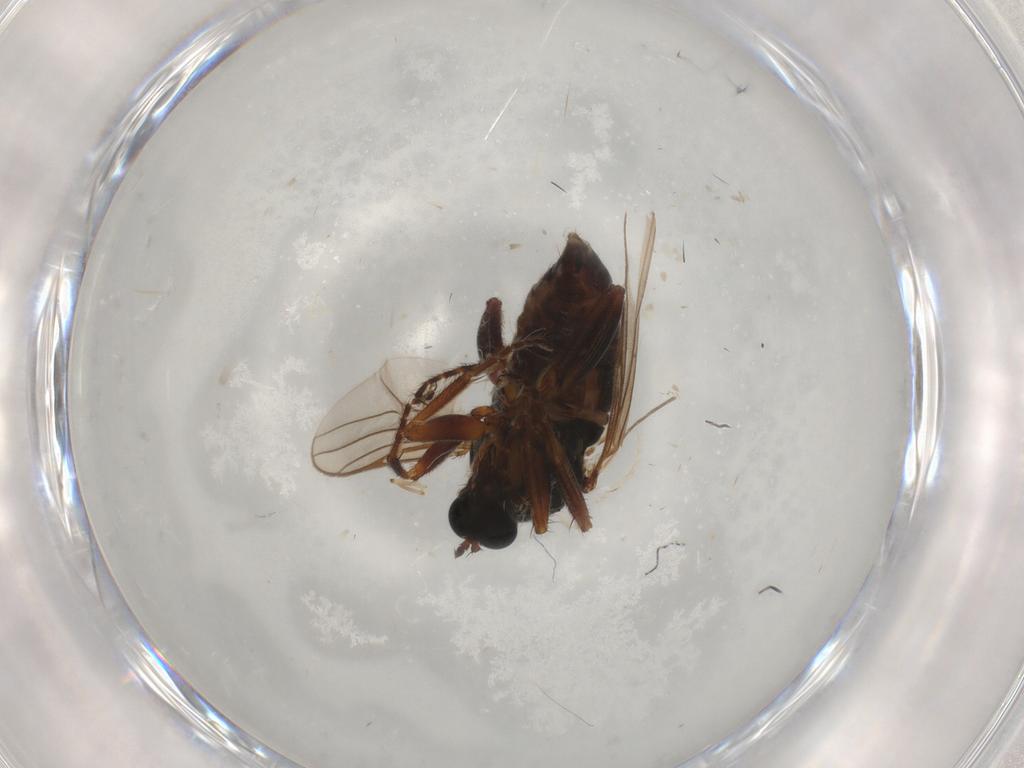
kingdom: Animalia
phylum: Arthropoda
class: Insecta
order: Diptera
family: Hybotidae
